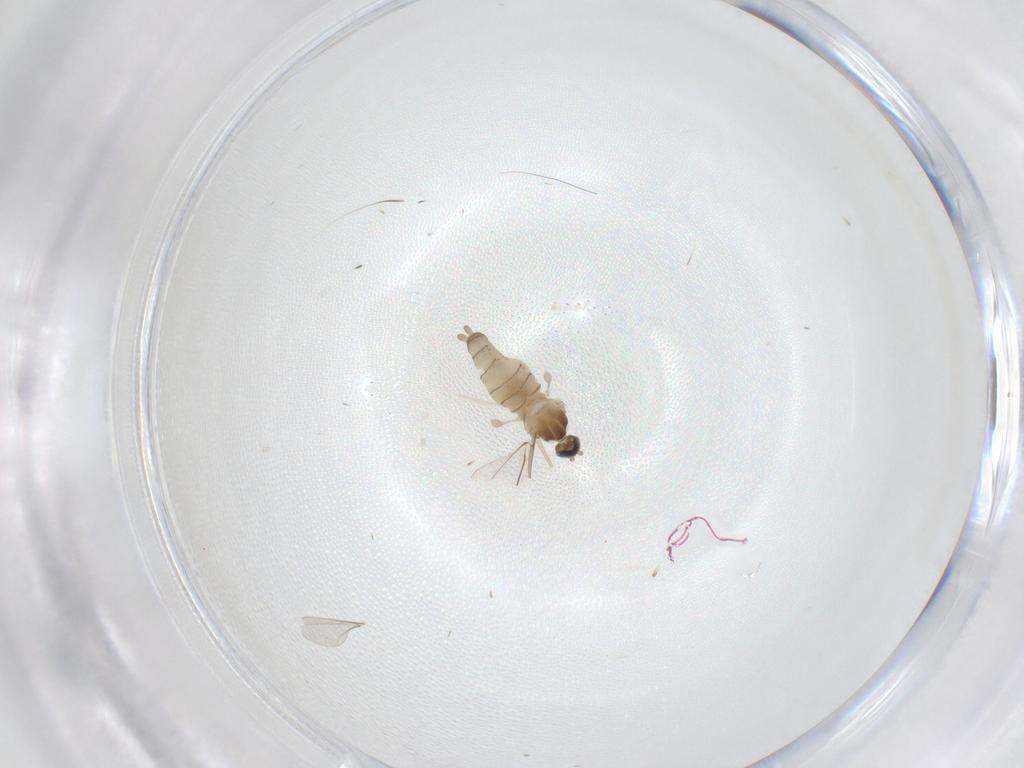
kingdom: Animalia
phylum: Arthropoda
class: Insecta
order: Diptera
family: Cecidomyiidae
